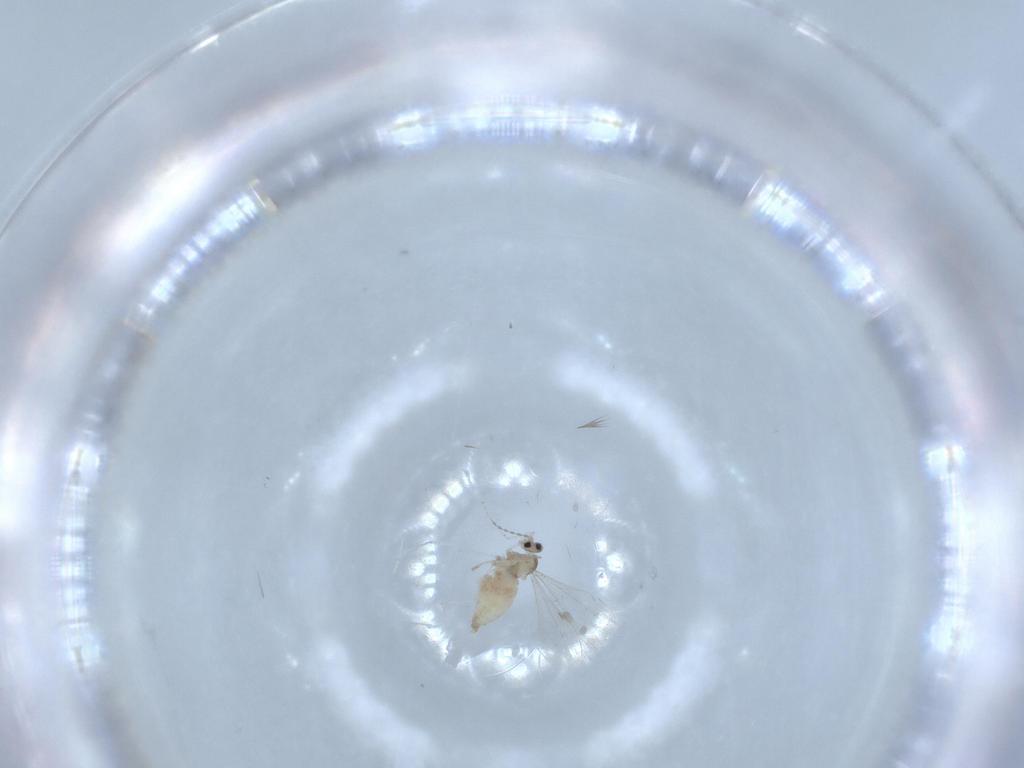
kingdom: Animalia
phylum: Arthropoda
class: Insecta
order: Diptera
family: Cecidomyiidae
